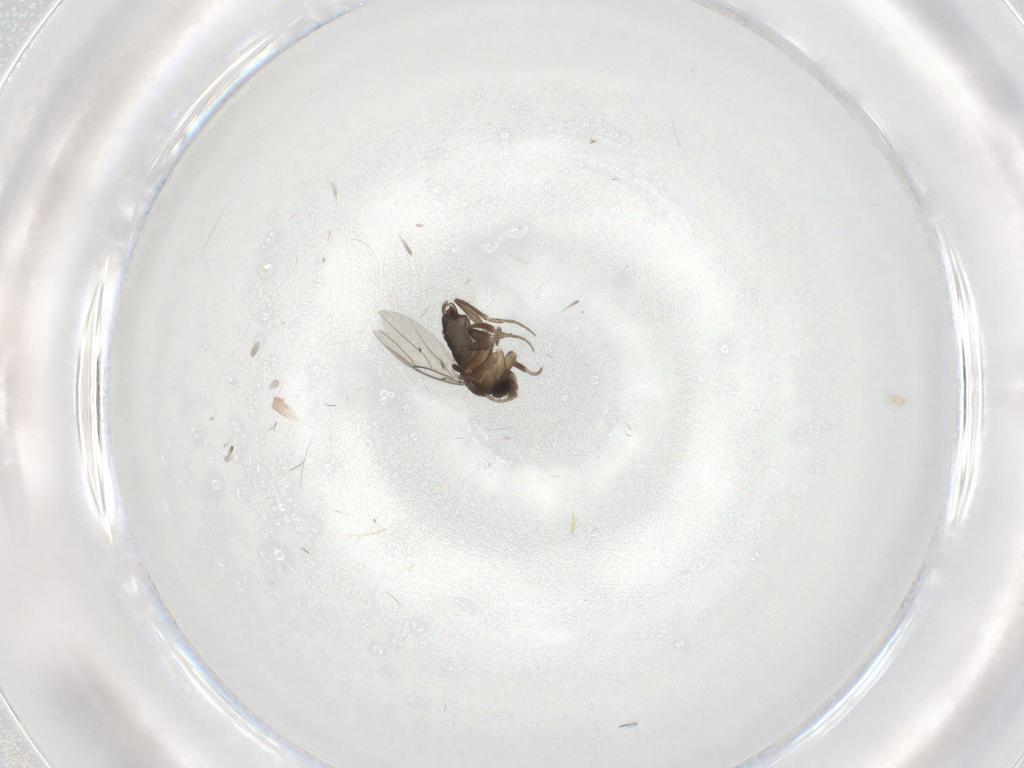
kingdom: Animalia
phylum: Arthropoda
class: Insecta
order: Diptera
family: Phoridae
